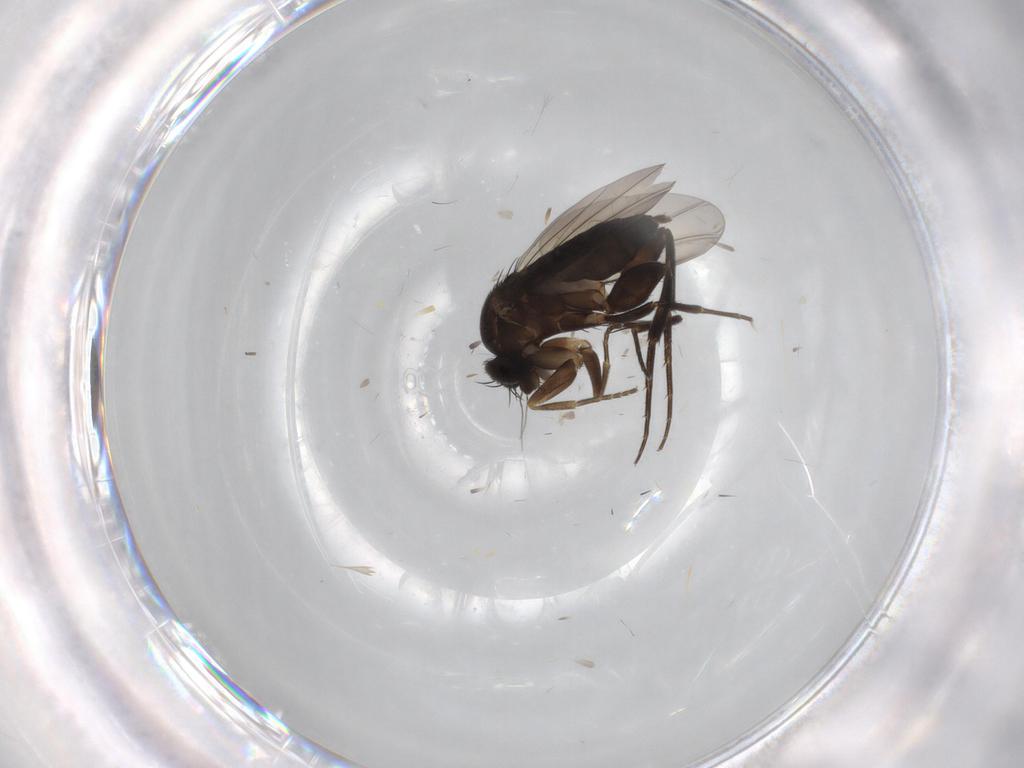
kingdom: Animalia
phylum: Arthropoda
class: Insecta
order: Diptera
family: Phoridae
